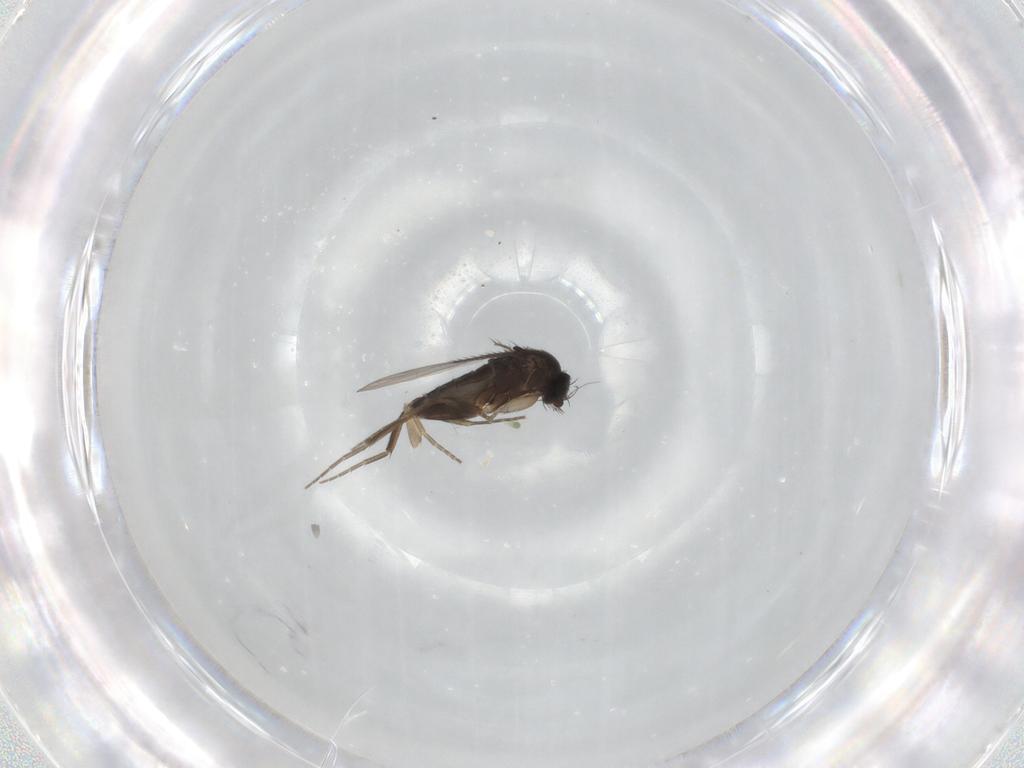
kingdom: Animalia
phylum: Arthropoda
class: Insecta
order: Diptera
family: Phoridae
